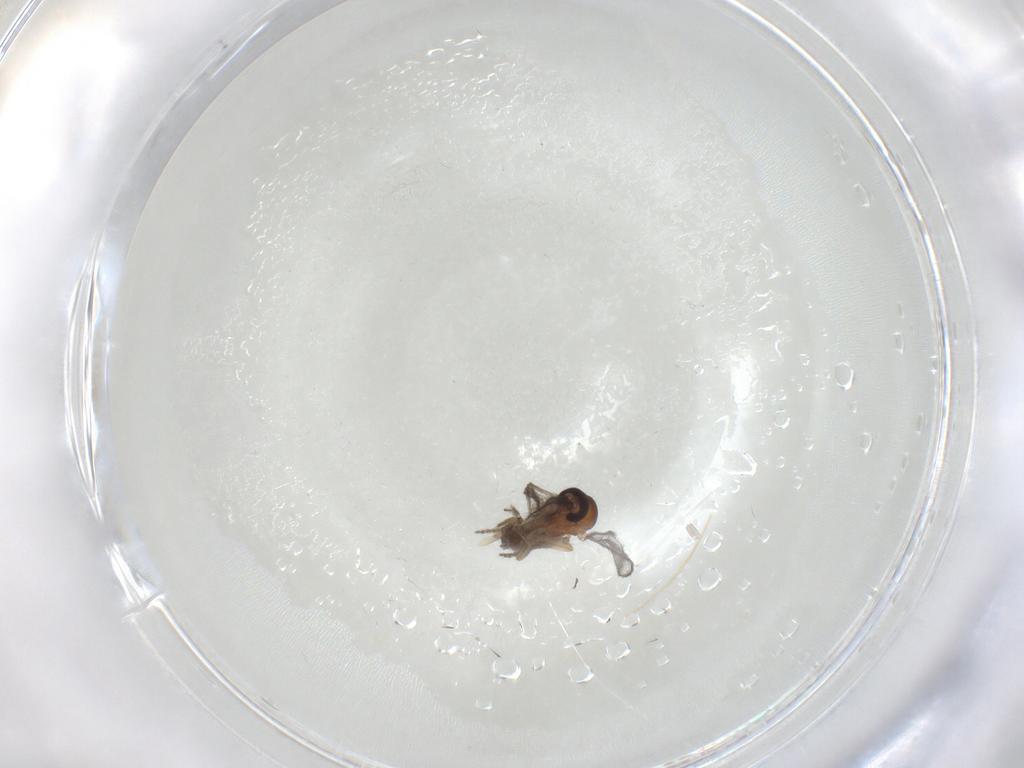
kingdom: Animalia
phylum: Arthropoda
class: Insecta
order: Diptera
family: Ceratopogonidae
